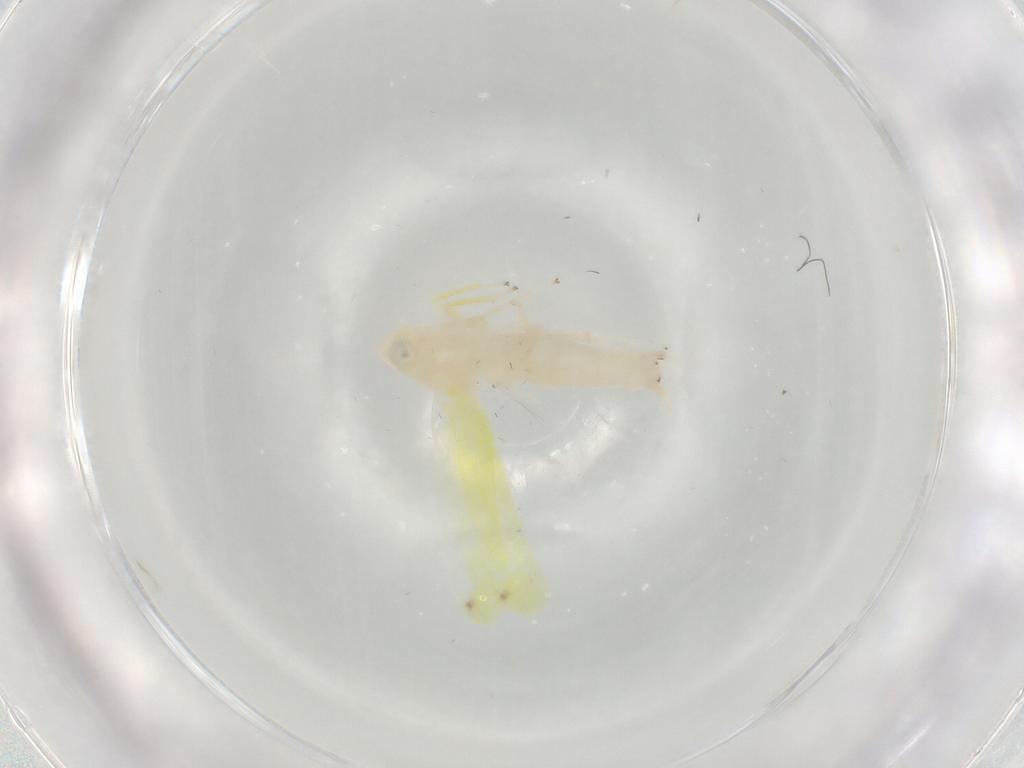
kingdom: Animalia
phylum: Arthropoda
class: Insecta
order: Hemiptera
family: Cicadellidae
